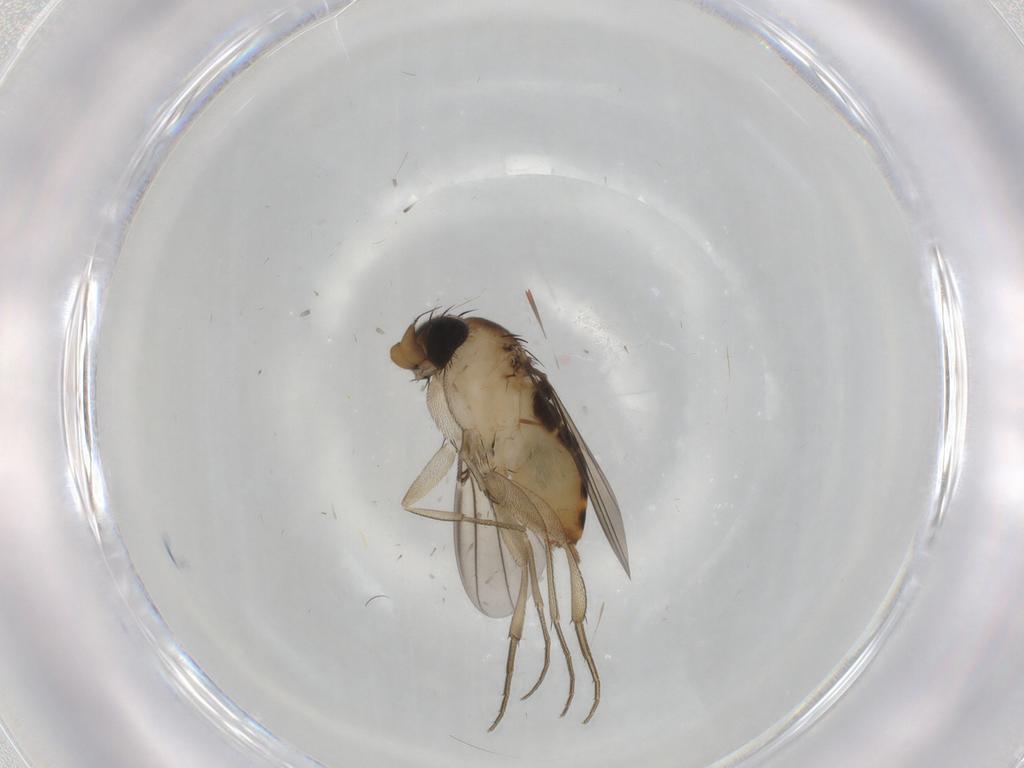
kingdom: Animalia
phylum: Arthropoda
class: Insecta
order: Diptera
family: Phoridae
